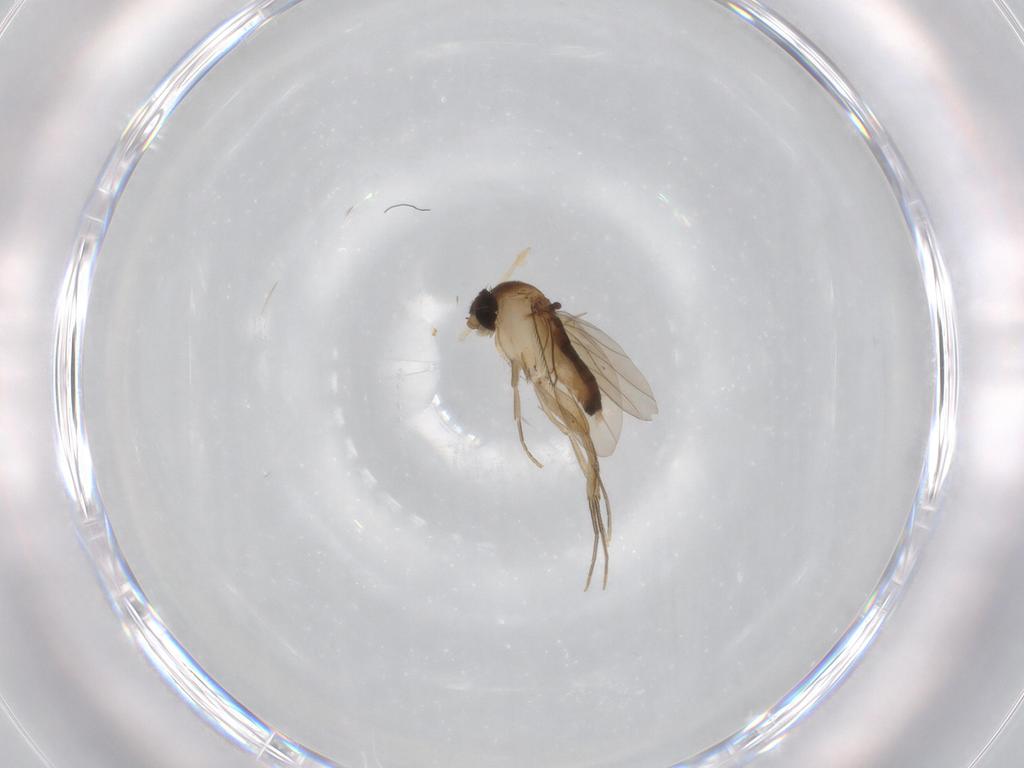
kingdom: Animalia
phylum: Arthropoda
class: Insecta
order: Diptera
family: Phoridae
